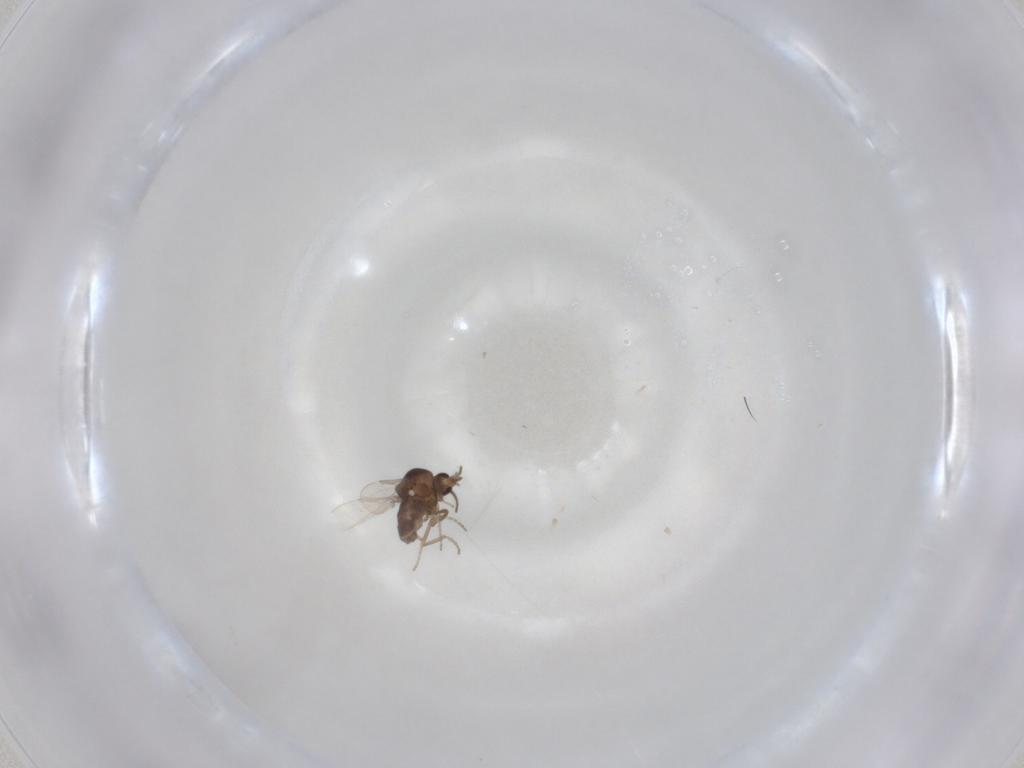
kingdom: Animalia
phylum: Arthropoda
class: Insecta
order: Diptera
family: Ceratopogonidae
